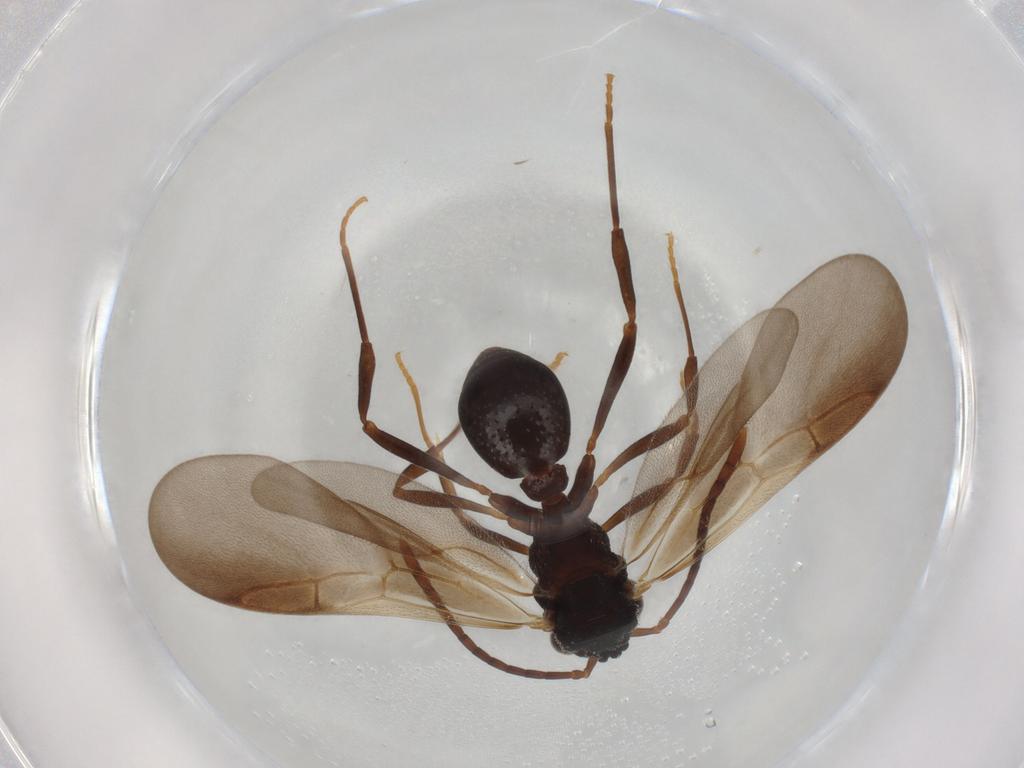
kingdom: Animalia
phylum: Arthropoda
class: Insecta
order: Hymenoptera
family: Formicidae
